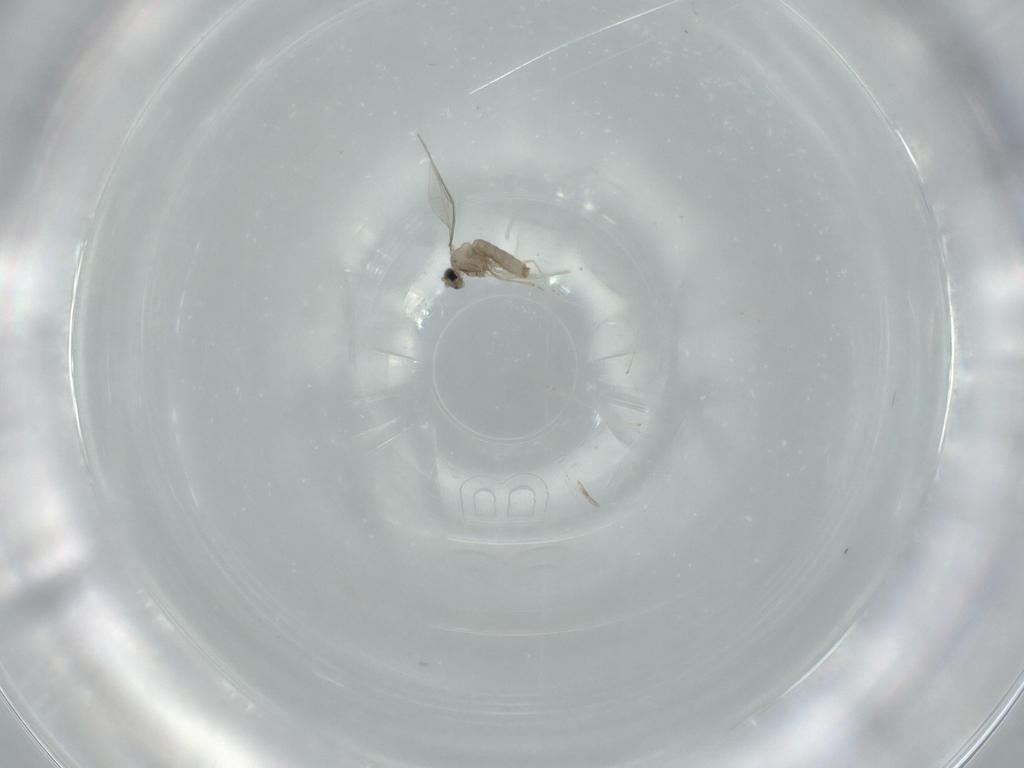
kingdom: Animalia
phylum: Arthropoda
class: Insecta
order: Diptera
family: Cecidomyiidae
